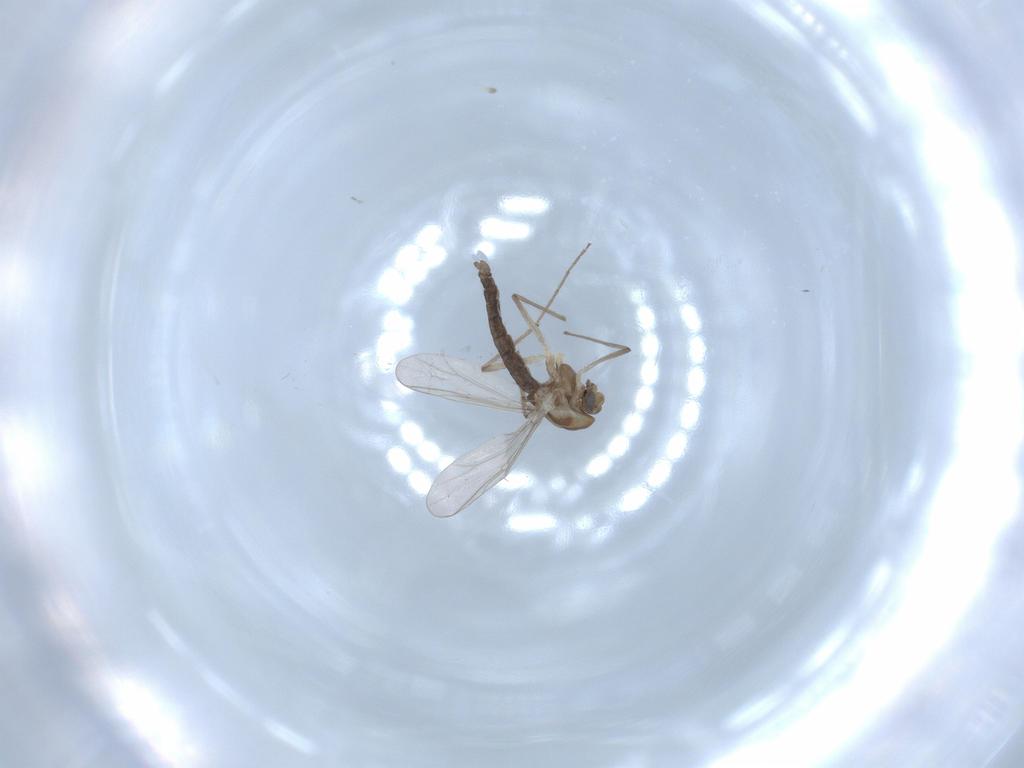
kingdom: Animalia
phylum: Arthropoda
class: Insecta
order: Diptera
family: Chironomidae
